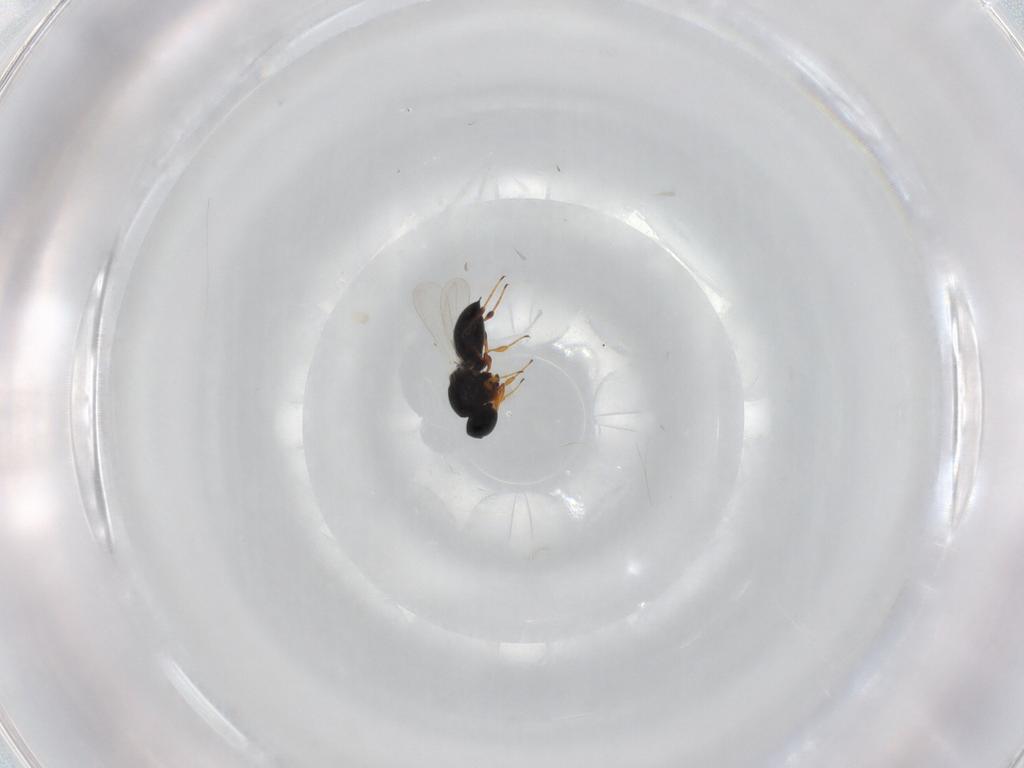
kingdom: Animalia
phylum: Arthropoda
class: Insecta
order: Hymenoptera
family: Platygastridae
